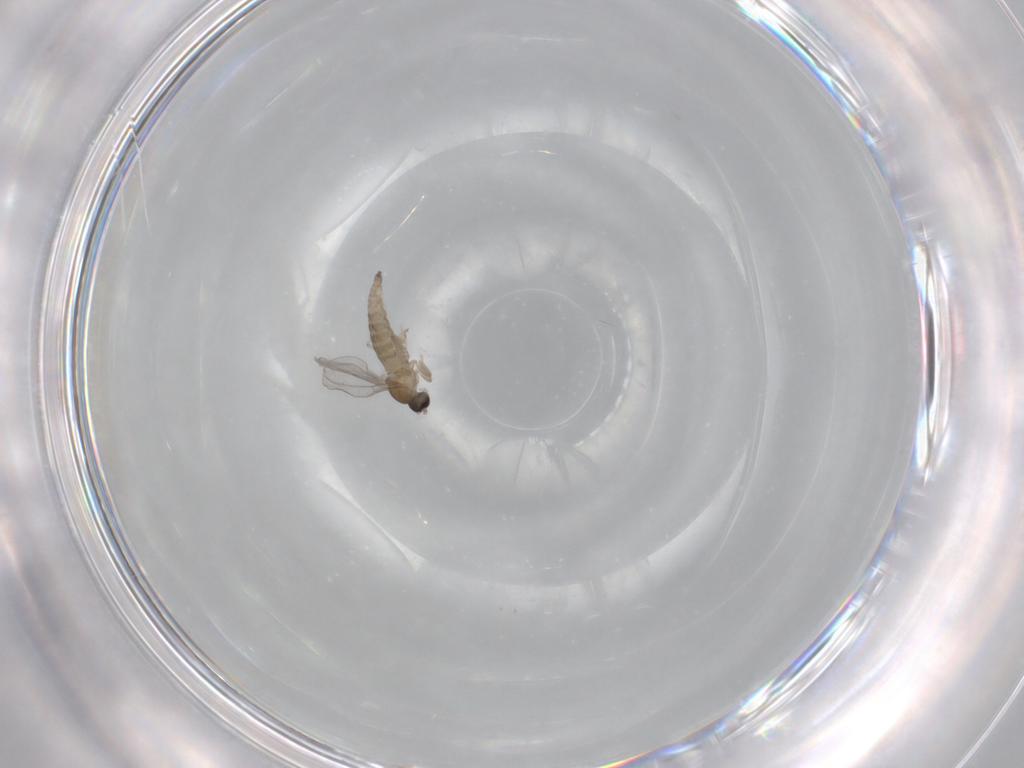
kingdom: Animalia
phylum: Arthropoda
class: Insecta
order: Diptera
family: Cecidomyiidae
